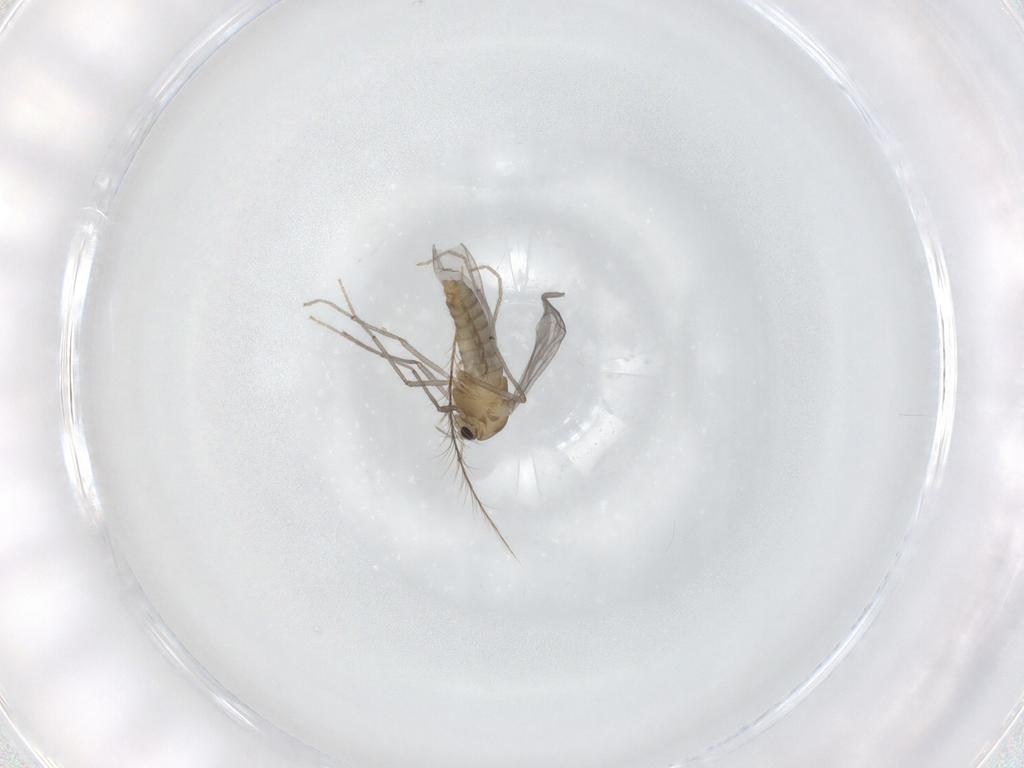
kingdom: Animalia
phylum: Arthropoda
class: Insecta
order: Diptera
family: Chironomidae
